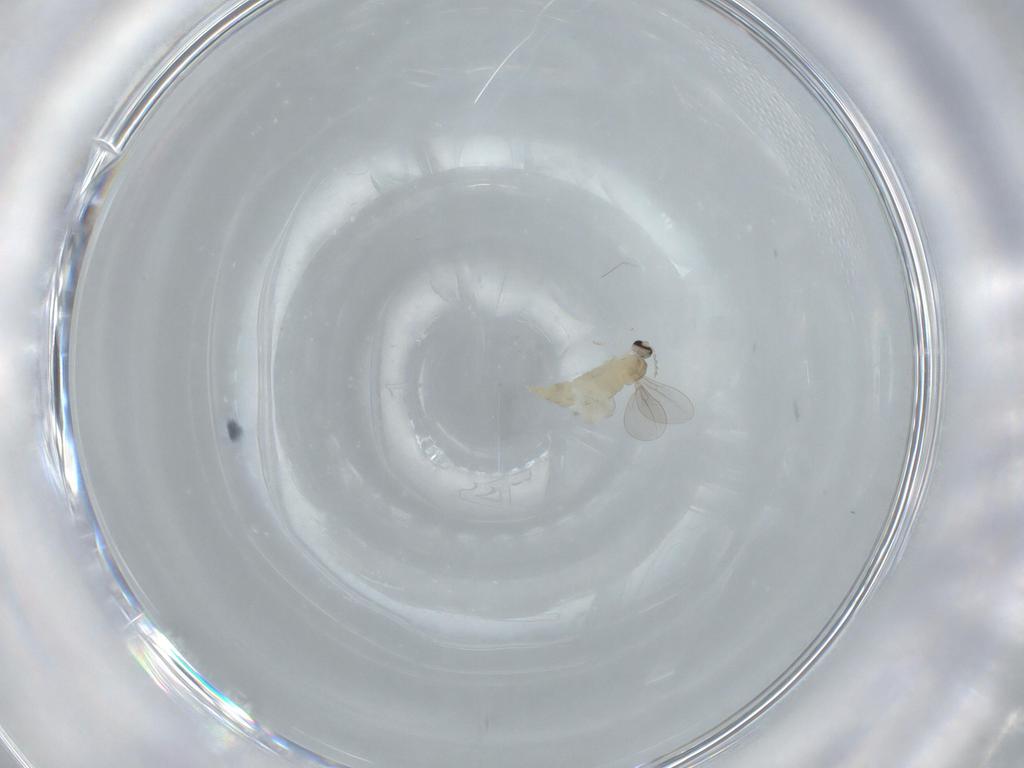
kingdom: Animalia
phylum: Arthropoda
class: Insecta
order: Diptera
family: Cecidomyiidae
